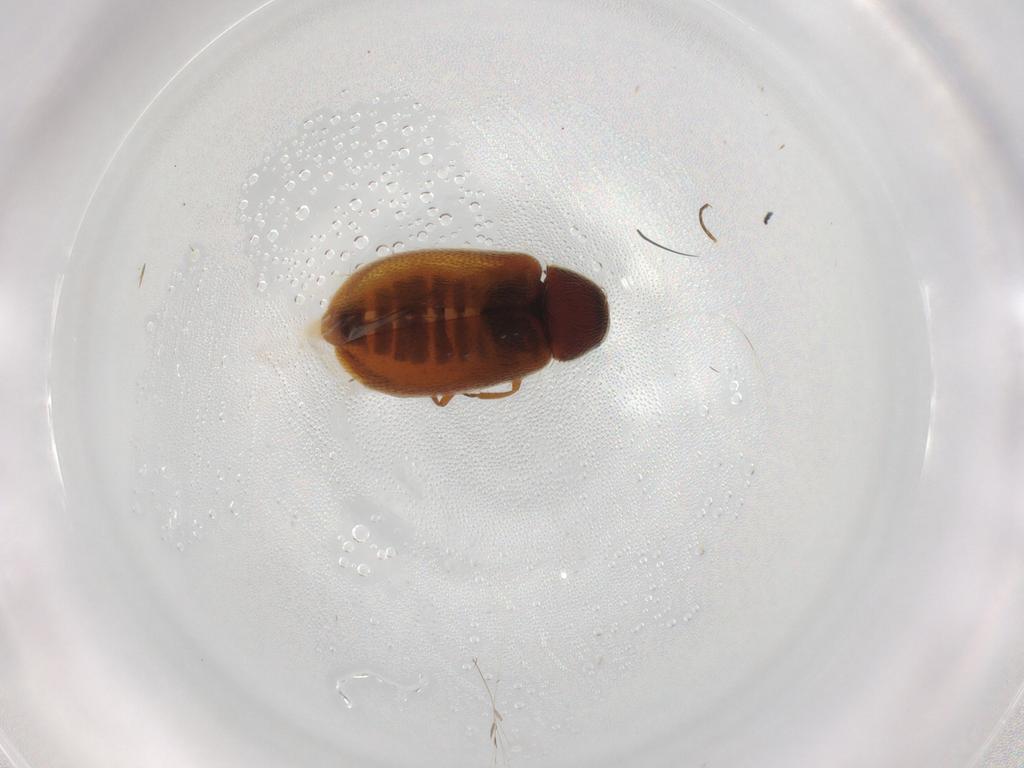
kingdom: Animalia
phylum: Arthropoda
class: Insecta
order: Coleoptera
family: Rhadalidae
